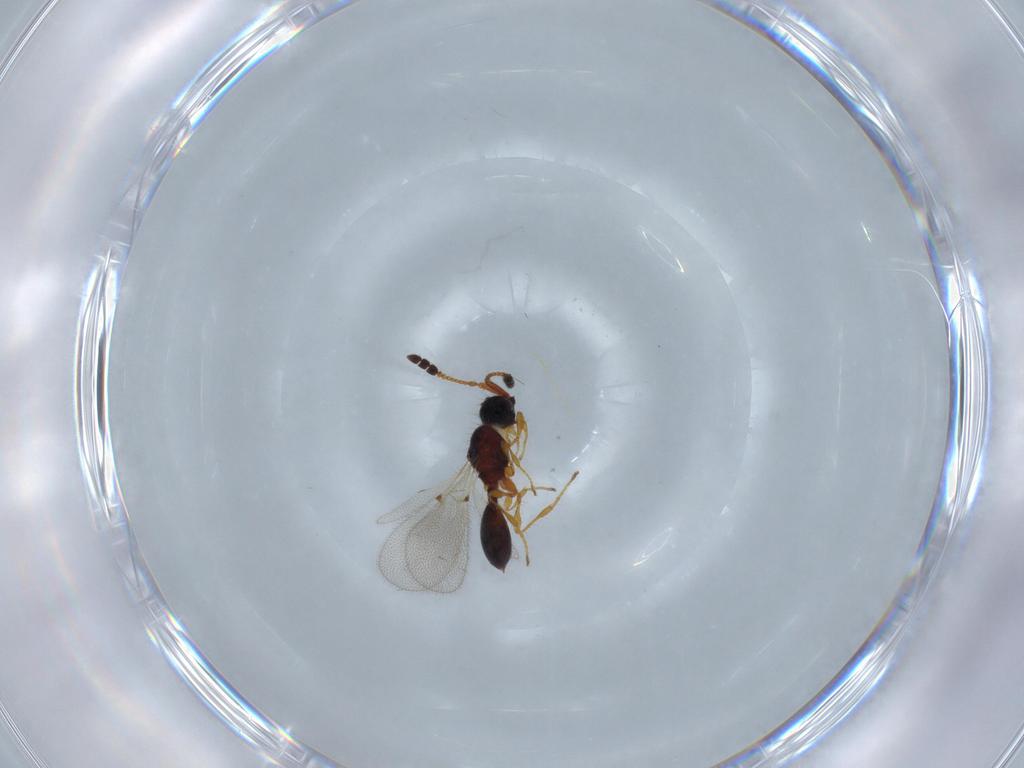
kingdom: Animalia
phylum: Arthropoda
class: Insecta
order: Hymenoptera
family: Diapriidae
